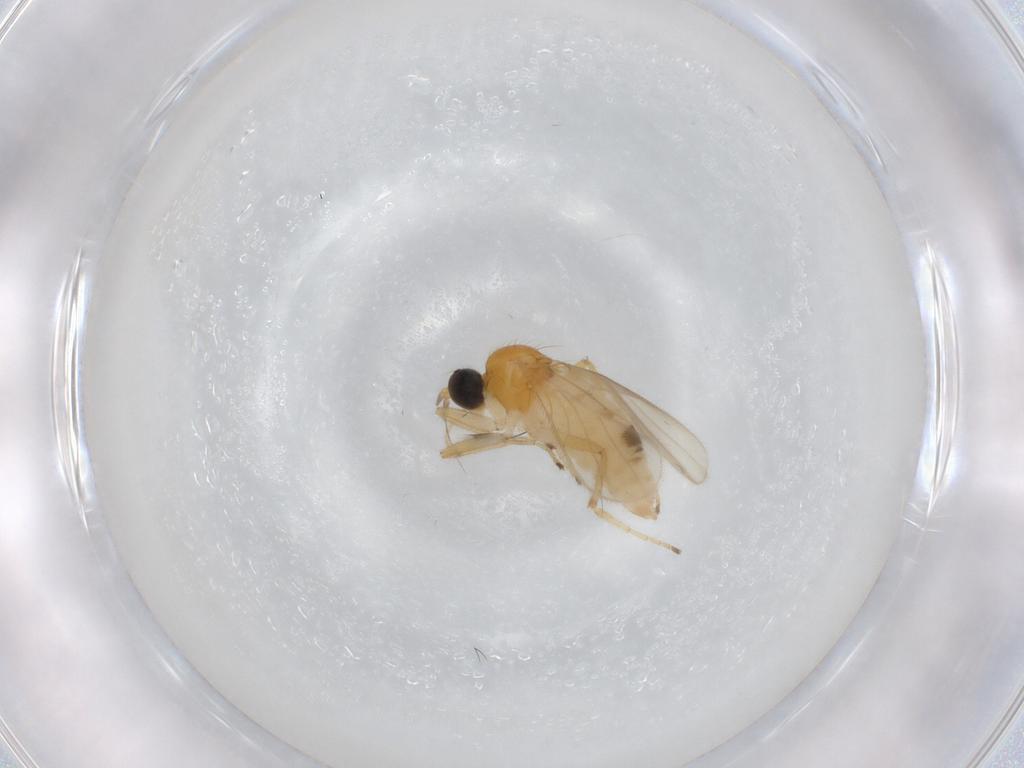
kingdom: Animalia
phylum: Arthropoda
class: Insecta
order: Diptera
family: Hybotidae
